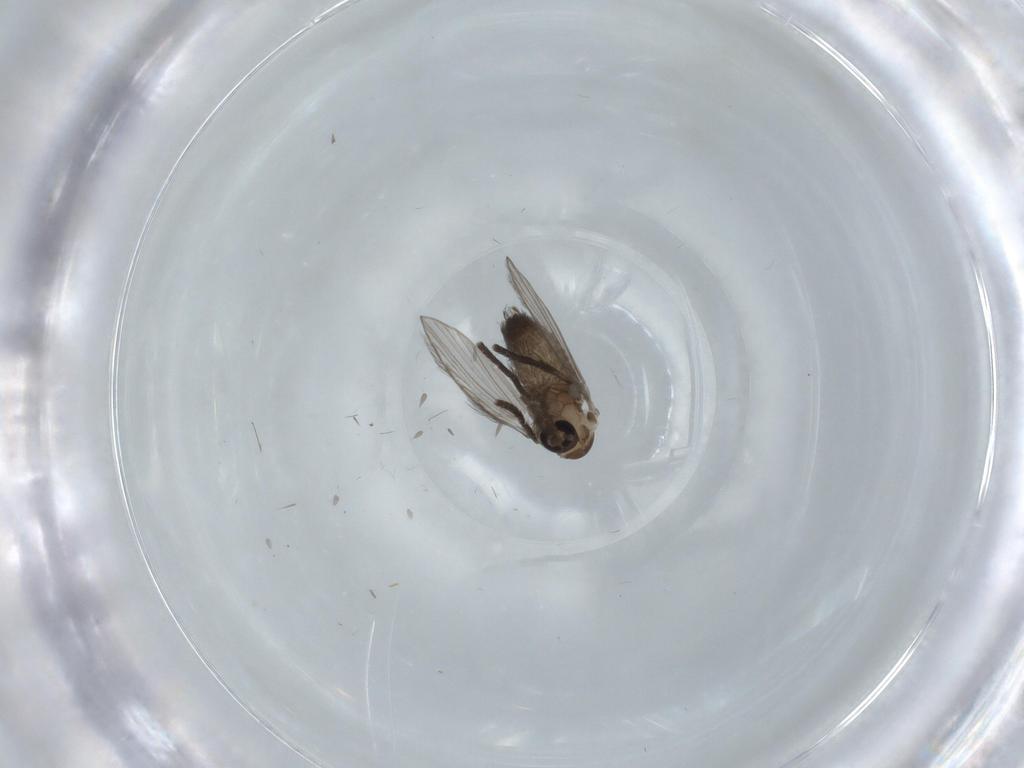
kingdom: Animalia
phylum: Arthropoda
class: Insecta
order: Diptera
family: Psychodidae
